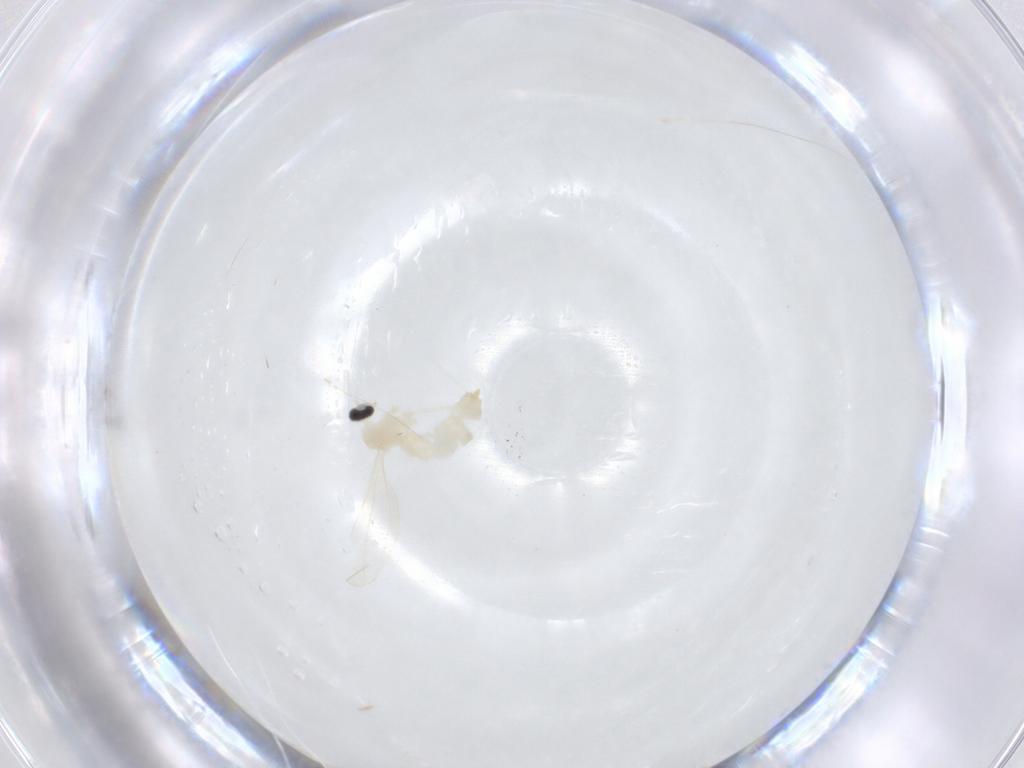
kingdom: Animalia
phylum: Arthropoda
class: Insecta
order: Diptera
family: Cecidomyiidae
